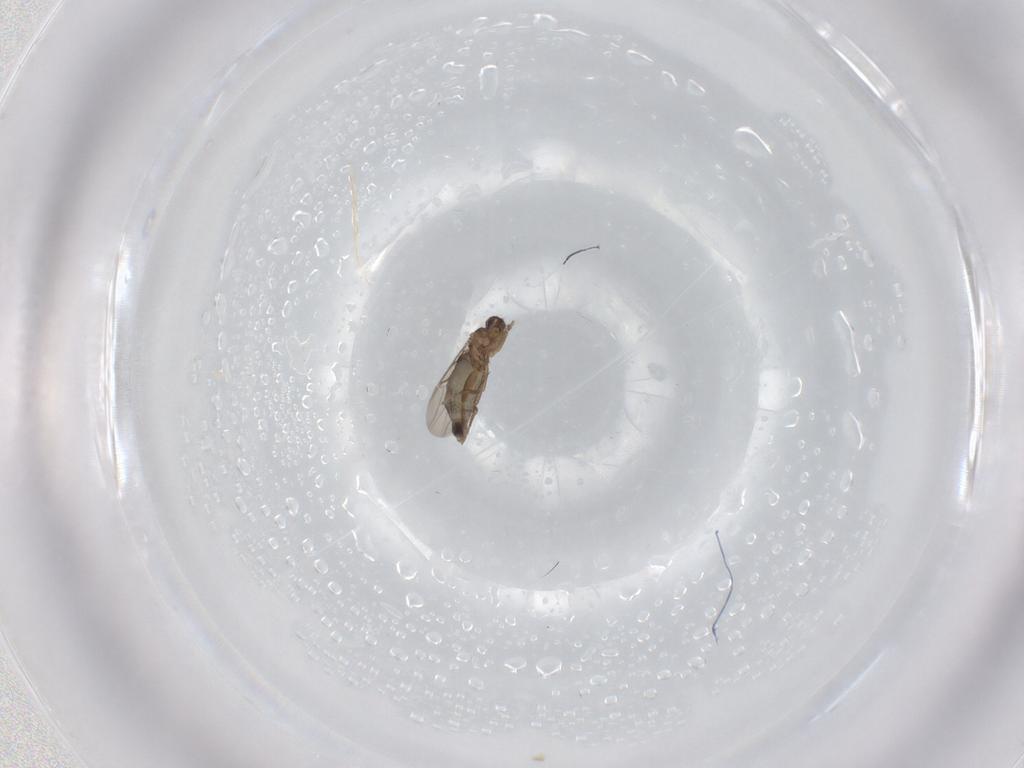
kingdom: Animalia
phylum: Arthropoda
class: Insecta
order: Diptera
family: Phoridae
